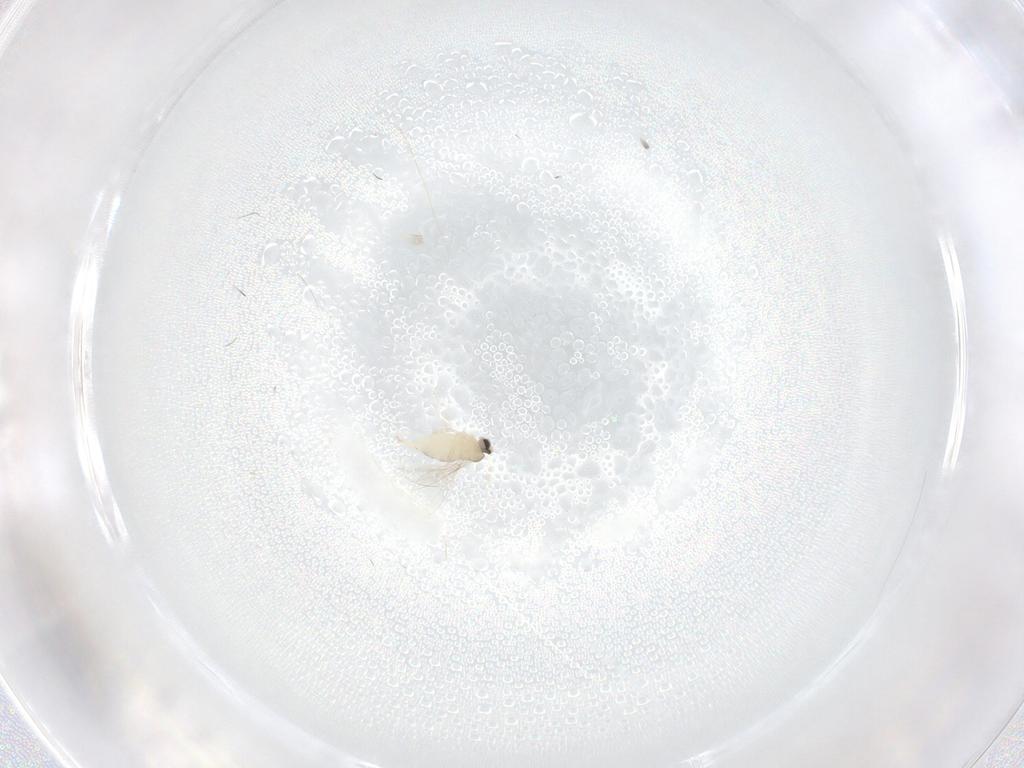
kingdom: Animalia
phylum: Arthropoda
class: Insecta
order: Diptera
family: Cecidomyiidae
